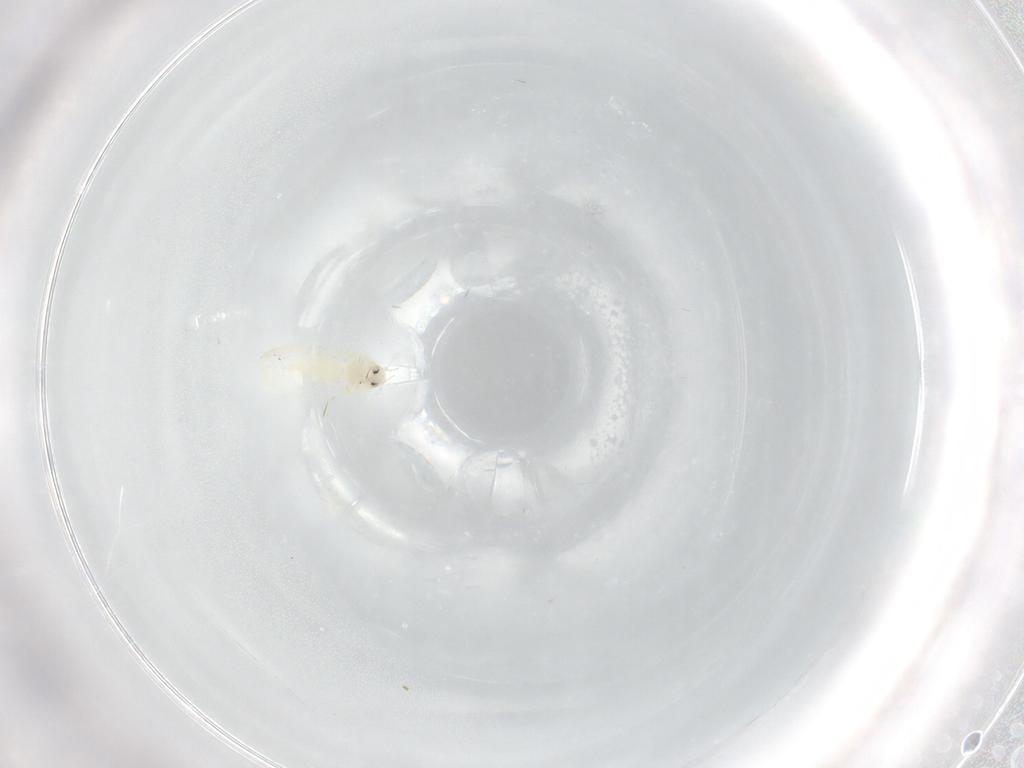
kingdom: Animalia
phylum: Arthropoda
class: Insecta
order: Hemiptera
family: Aleyrodidae
